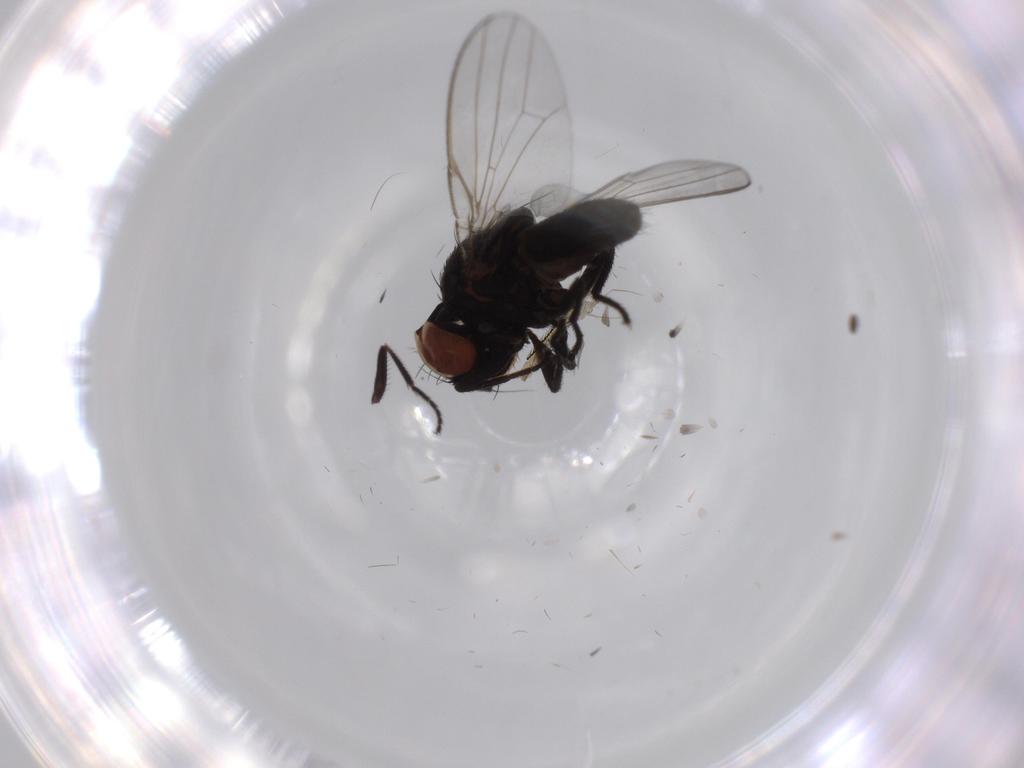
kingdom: Animalia
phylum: Arthropoda
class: Insecta
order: Diptera
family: Milichiidae
